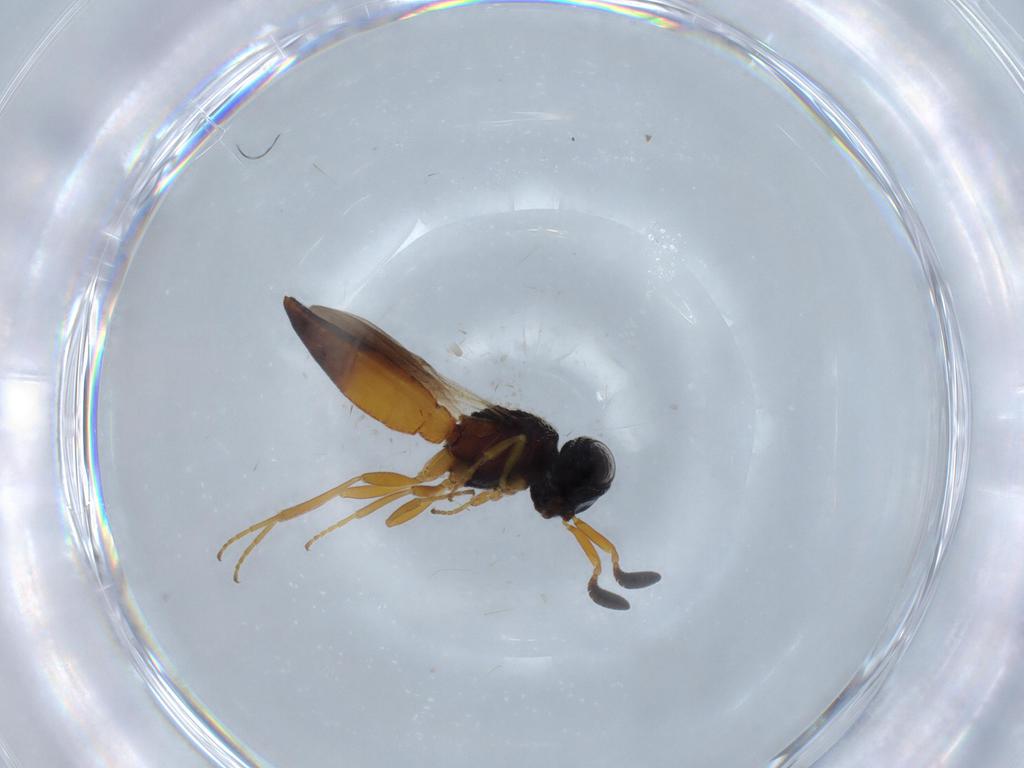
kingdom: Animalia
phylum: Arthropoda
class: Insecta
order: Hymenoptera
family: Scelionidae
